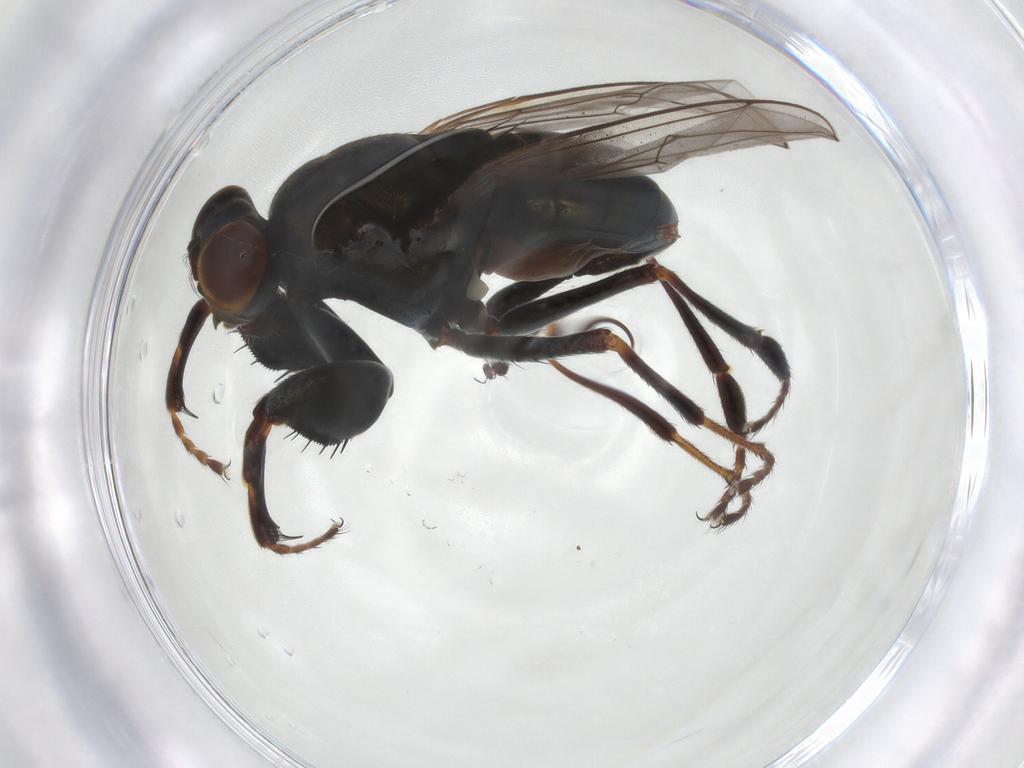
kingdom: Animalia
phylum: Arthropoda
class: Insecta
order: Diptera
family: Ephydridae
